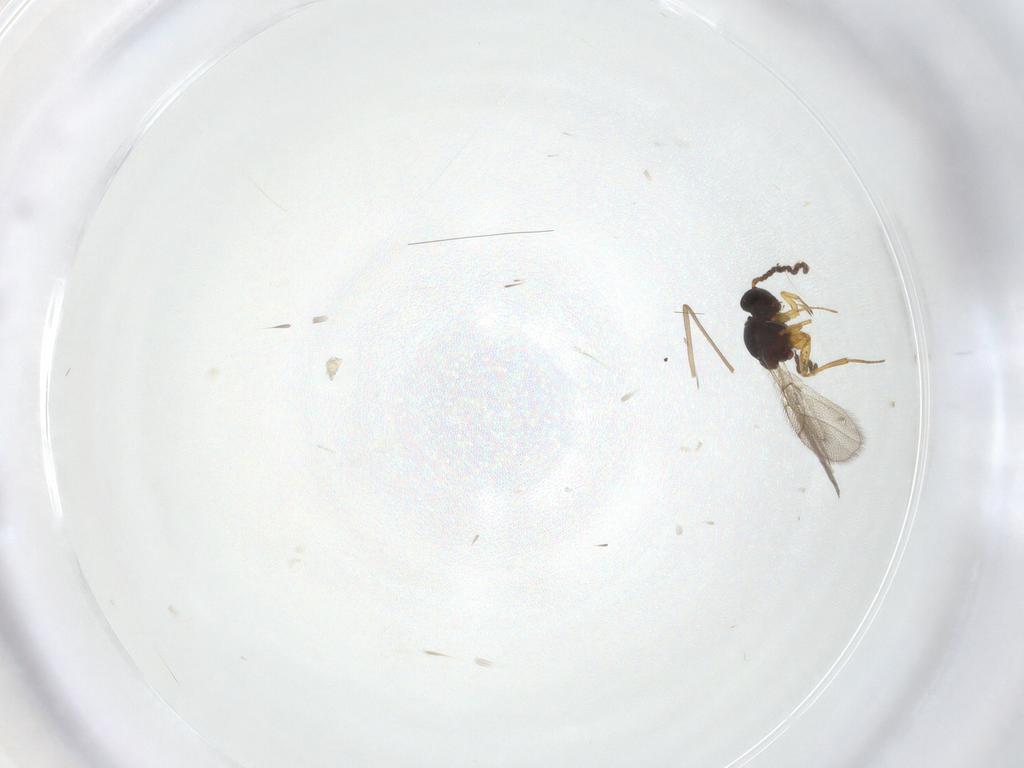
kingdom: Animalia
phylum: Arthropoda
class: Insecta
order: Hymenoptera
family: Figitidae
